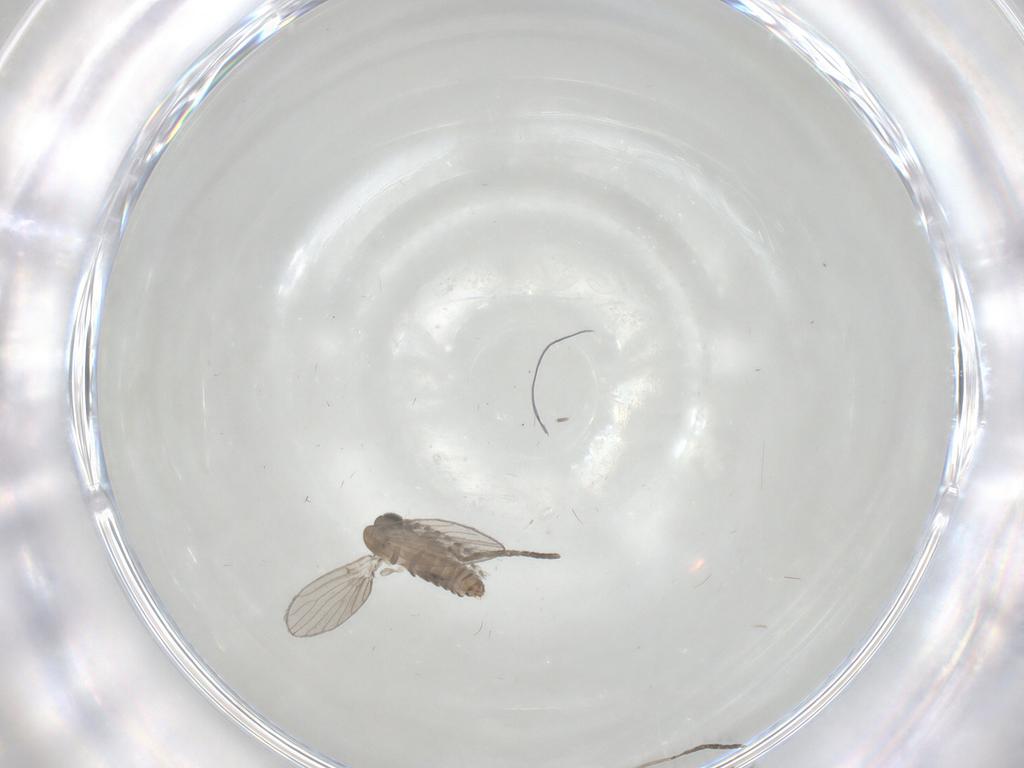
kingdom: Animalia
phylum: Arthropoda
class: Insecta
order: Diptera
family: Psychodidae
